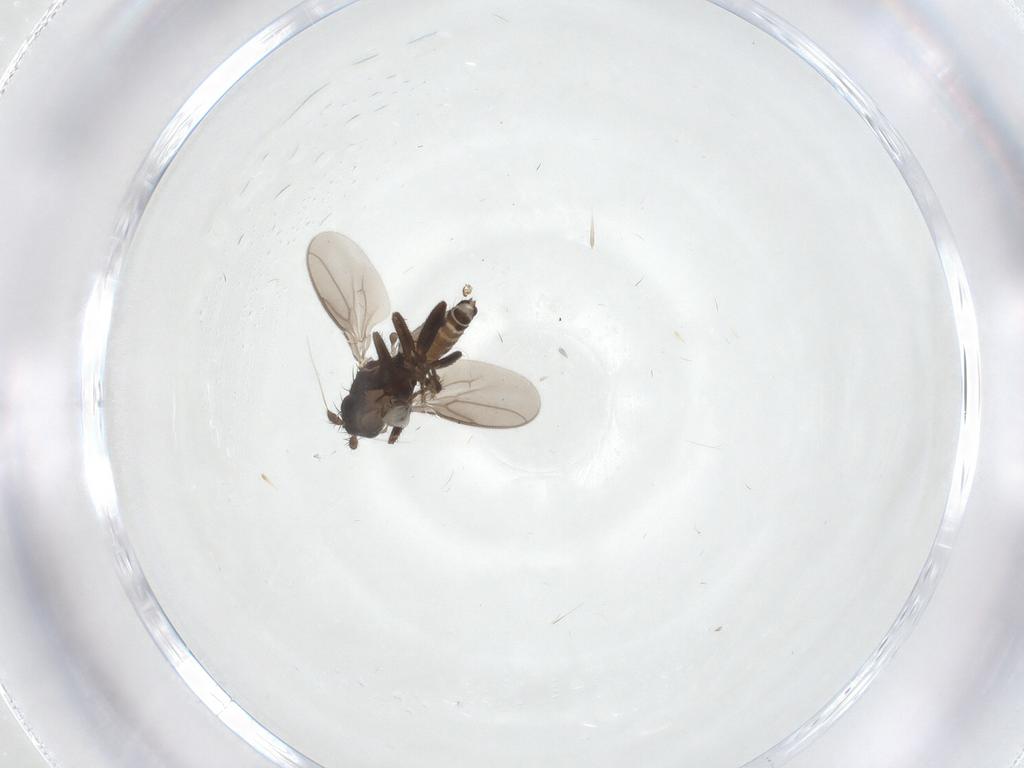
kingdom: Animalia
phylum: Arthropoda
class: Insecta
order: Diptera
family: Sphaeroceridae
